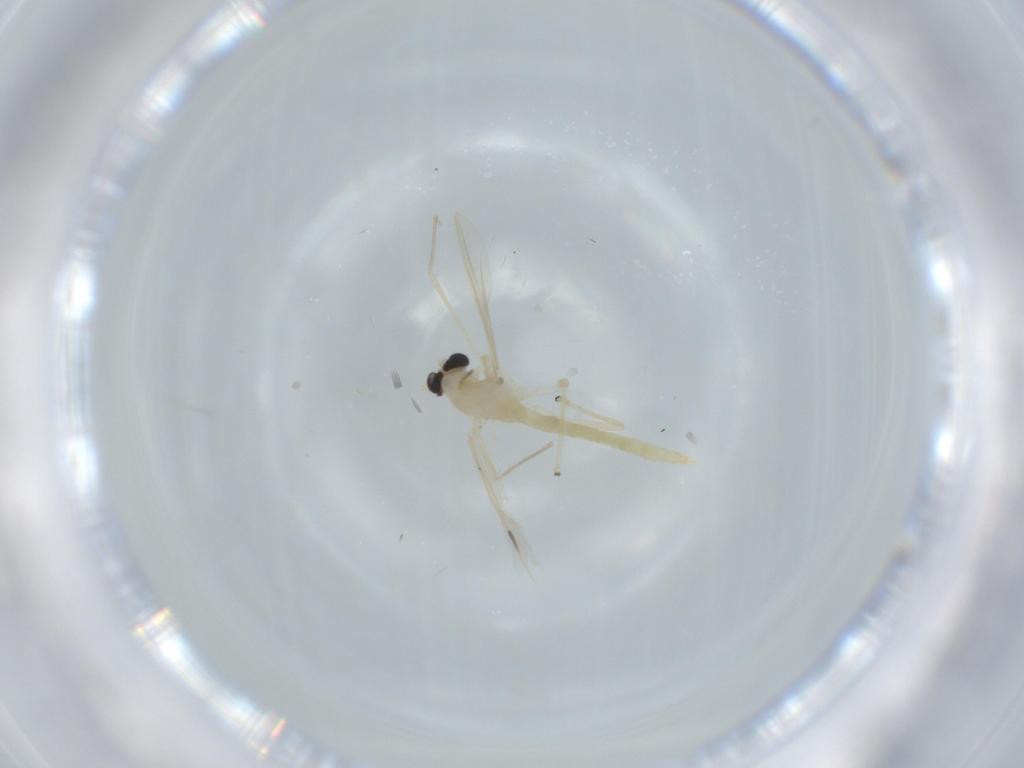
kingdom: Animalia
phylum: Arthropoda
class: Insecta
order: Diptera
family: Chironomidae
